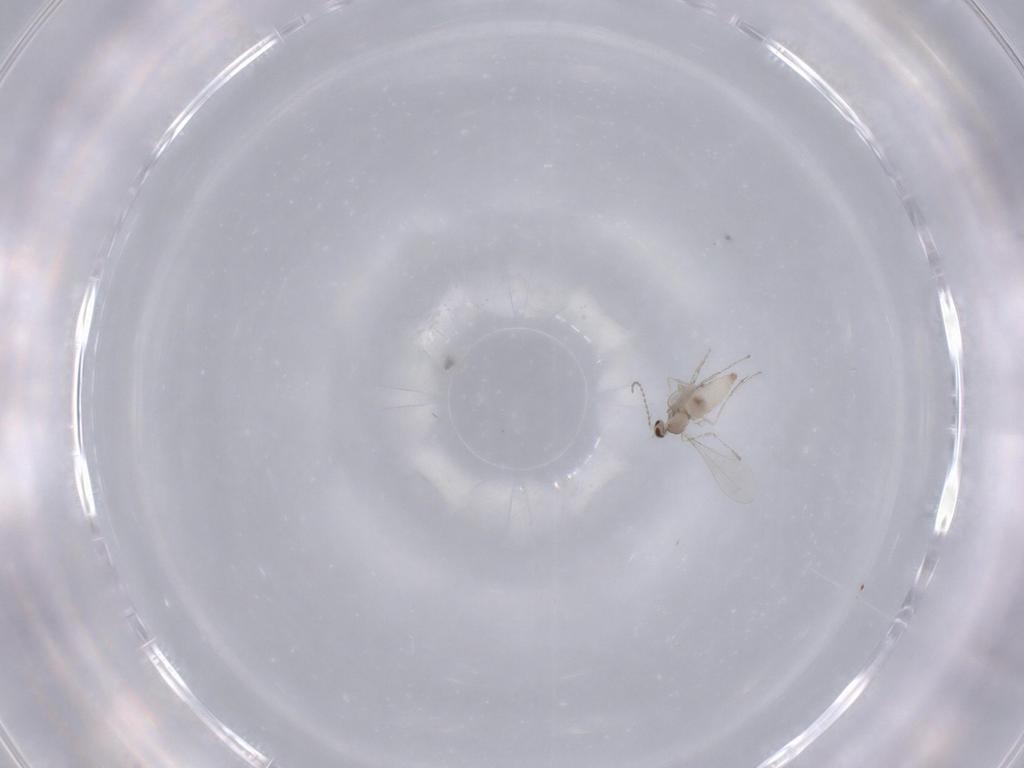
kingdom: Animalia
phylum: Arthropoda
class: Insecta
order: Diptera
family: Cecidomyiidae
